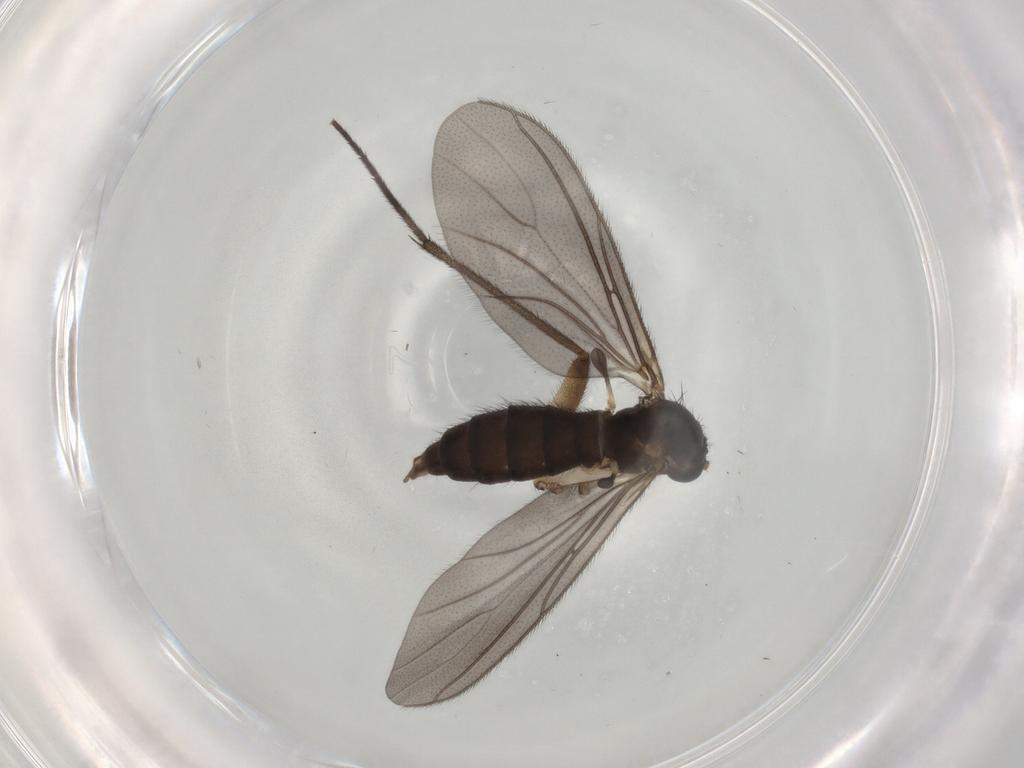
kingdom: Animalia
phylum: Arthropoda
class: Insecta
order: Diptera
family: Sciaridae
